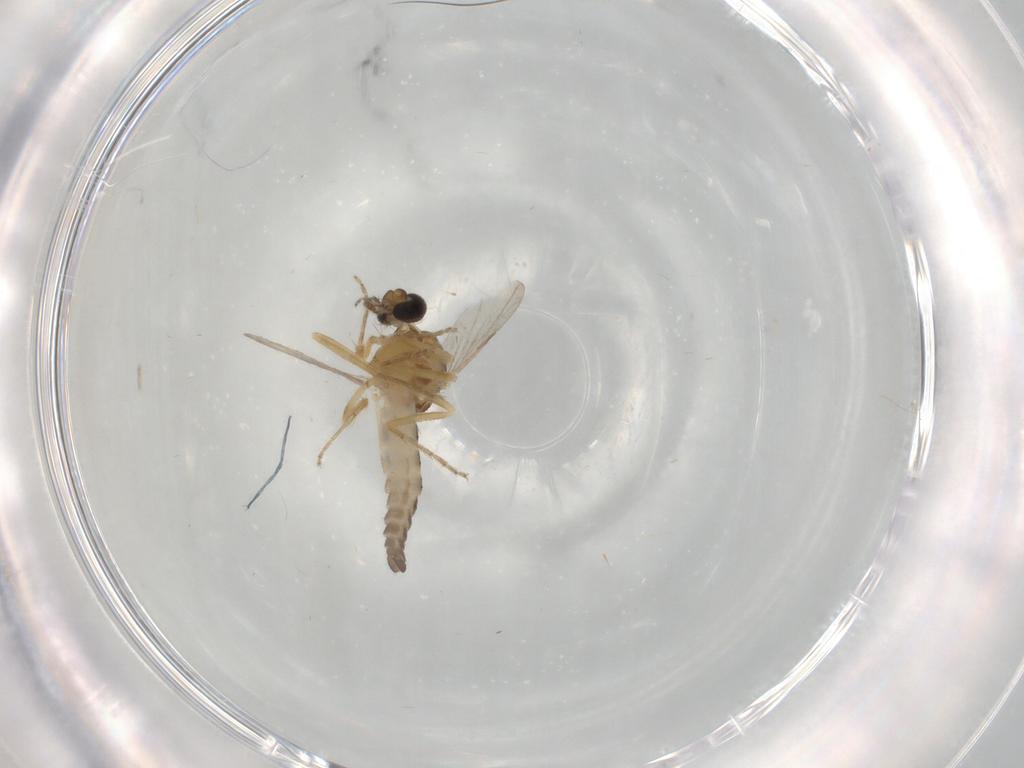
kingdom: Animalia
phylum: Arthropoda
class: Insecta
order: Diptera
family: Ceratopogonidae
